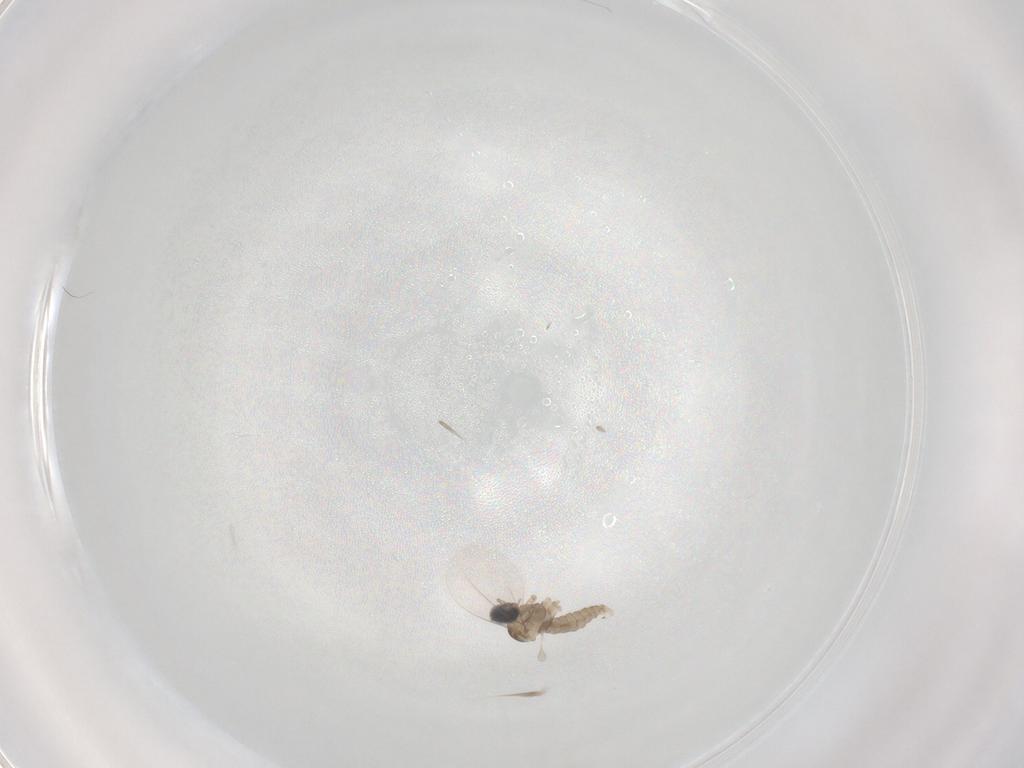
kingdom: Animalia
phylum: Arthropoda
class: Insecta
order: Diptera
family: Cecidomyiidae
